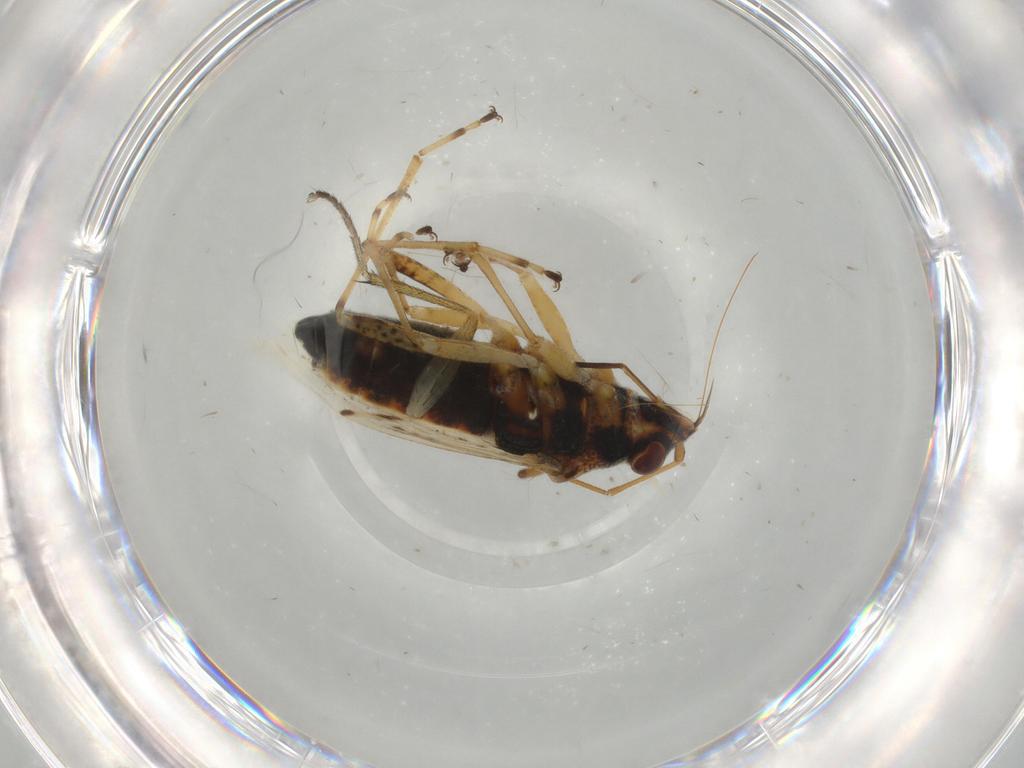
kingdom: Animalia
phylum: Arthropoda
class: Insecta
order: Hemiptera
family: Lygaeidae
